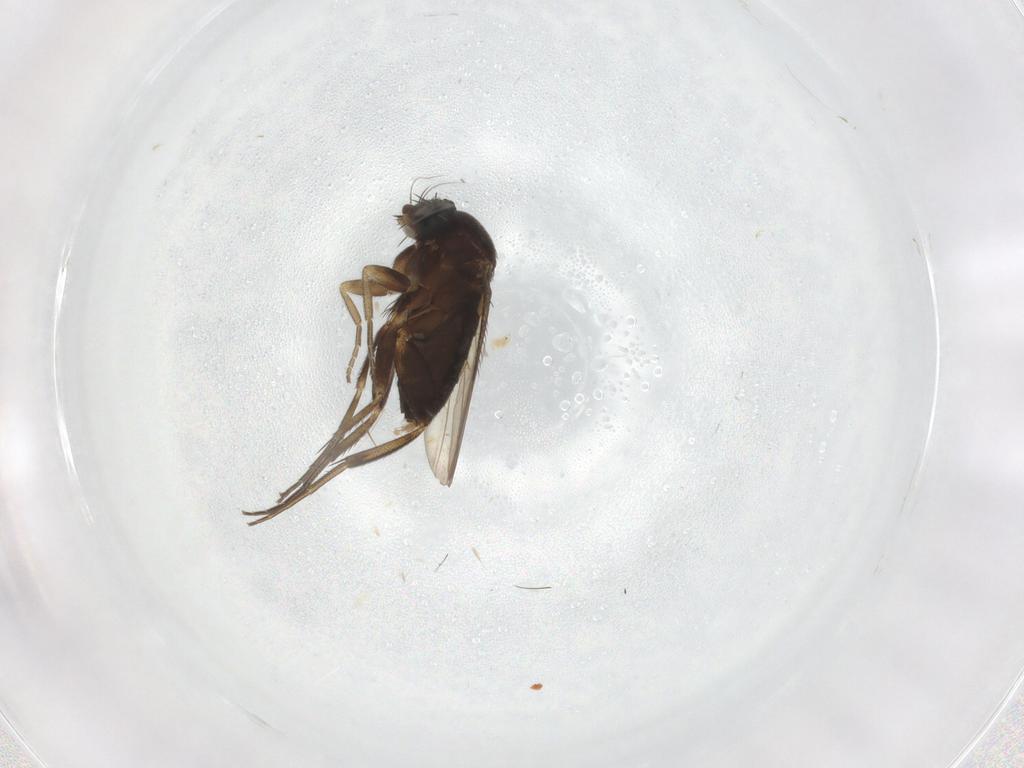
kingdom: Animalia
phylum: Arthropoda
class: Insecta
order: Diptera
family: Phoridae
